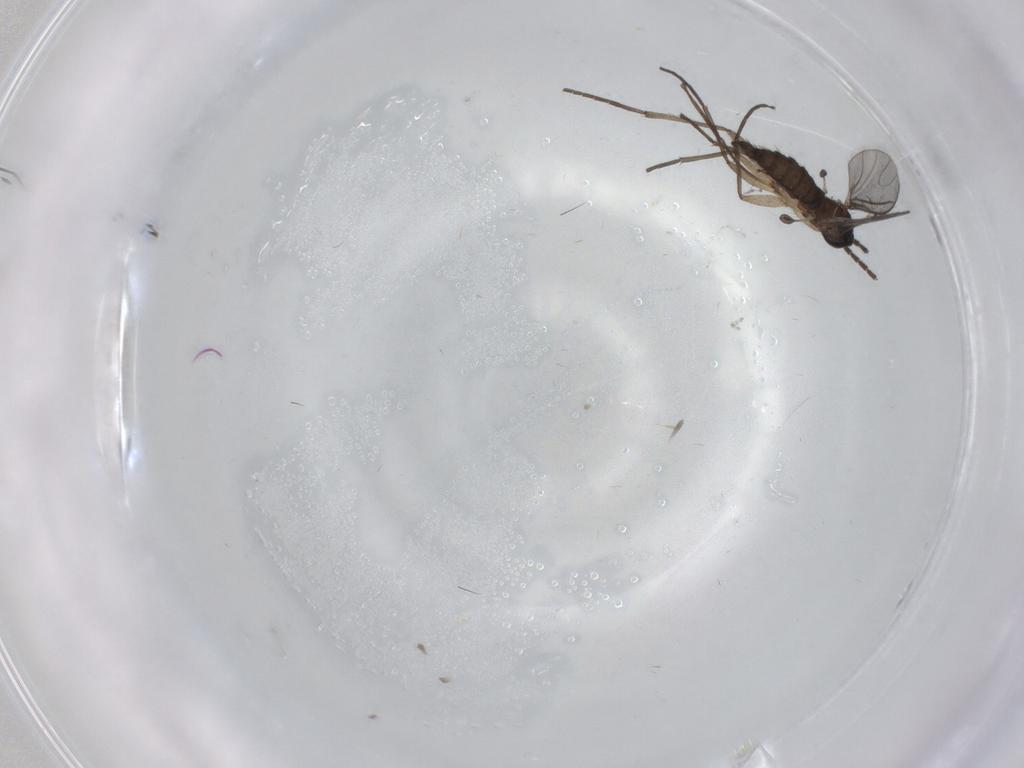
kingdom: Animalia
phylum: Arthropoda
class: Insecta
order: Diptera
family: Sciaridae
